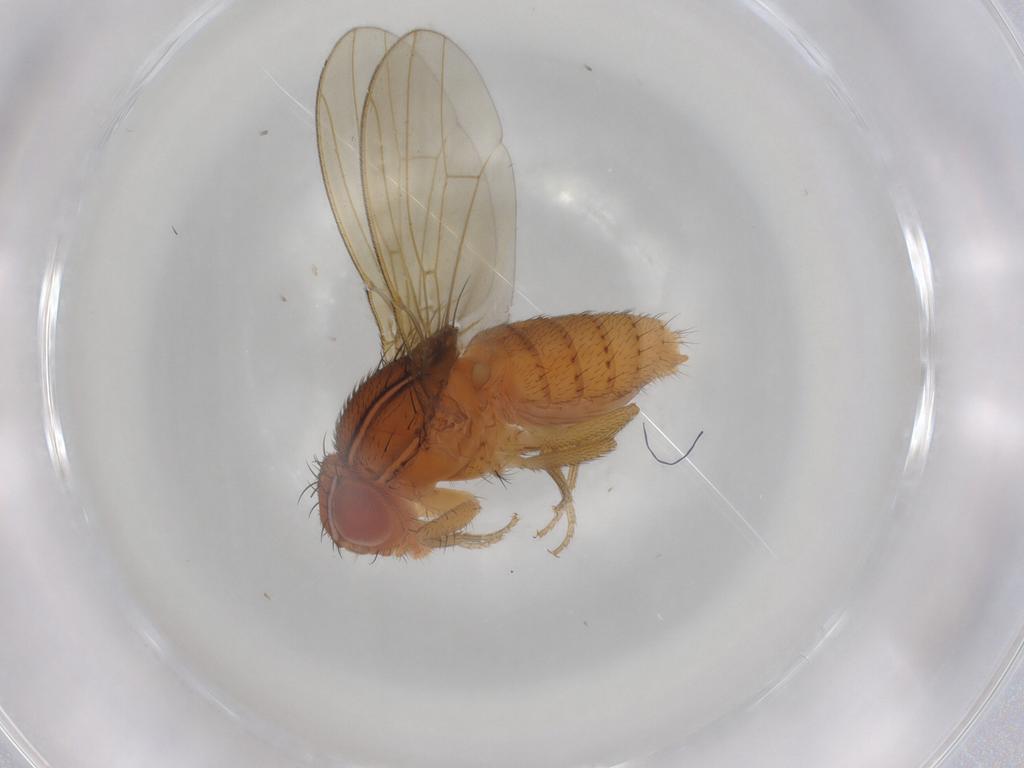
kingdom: Animalia
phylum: Arthropoda
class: Insecta
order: Diptera
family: Drosophilidae
